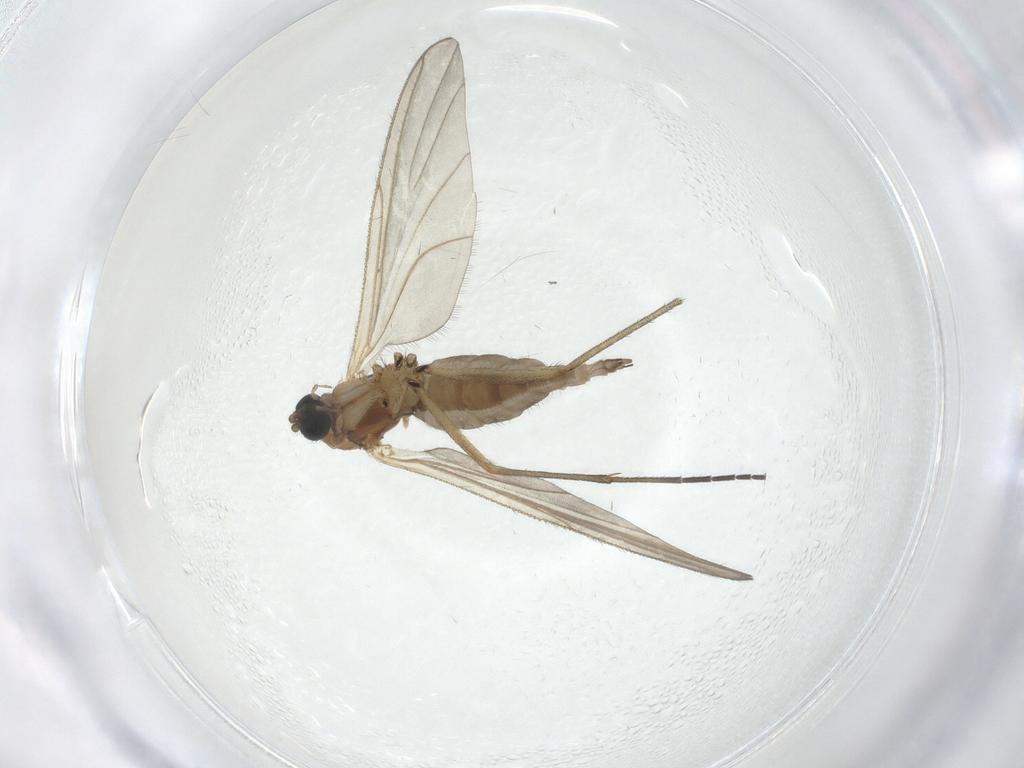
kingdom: Animalia
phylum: Arthropoda
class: Insecta
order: Diptera
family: Sciaridae
